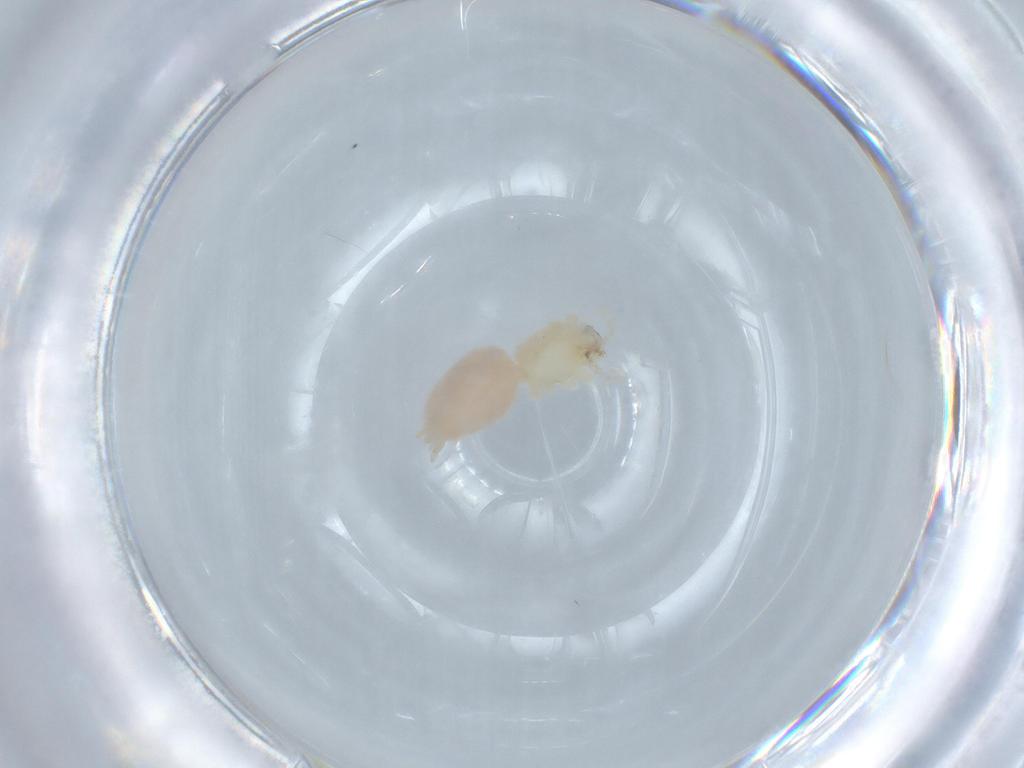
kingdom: Animalia
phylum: Arthropoda
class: Arachnida
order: Araneae
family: Anyphaenidae
